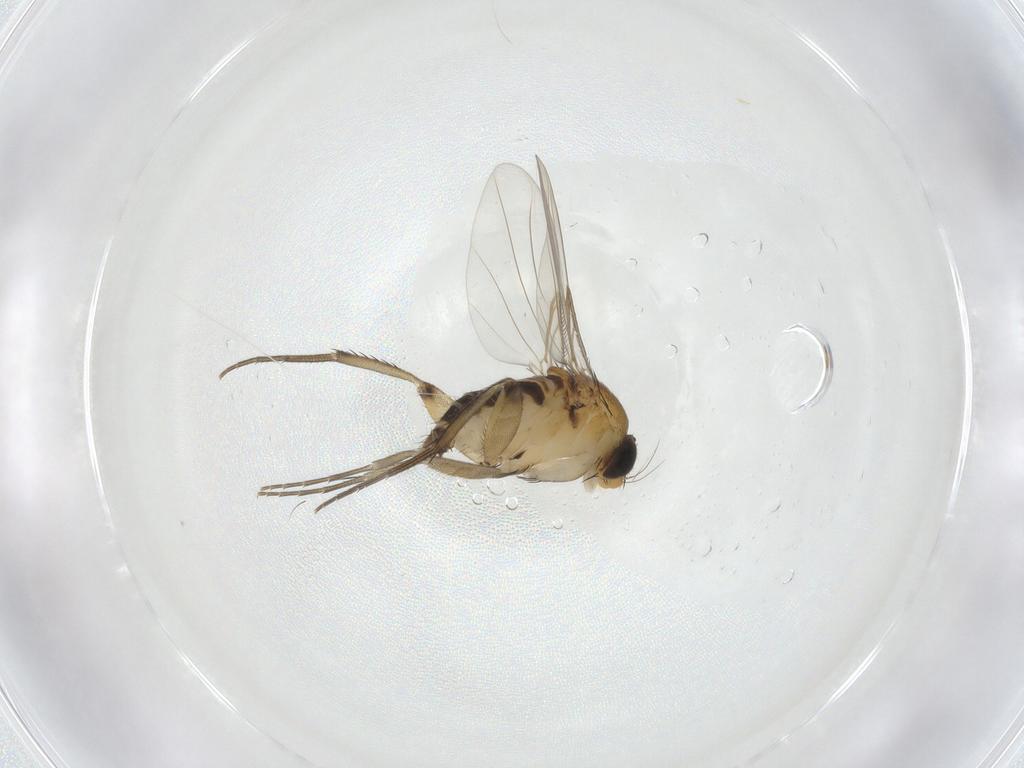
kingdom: Animalia
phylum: Arthropoda
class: Insecta
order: Diptera
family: Phoridae
